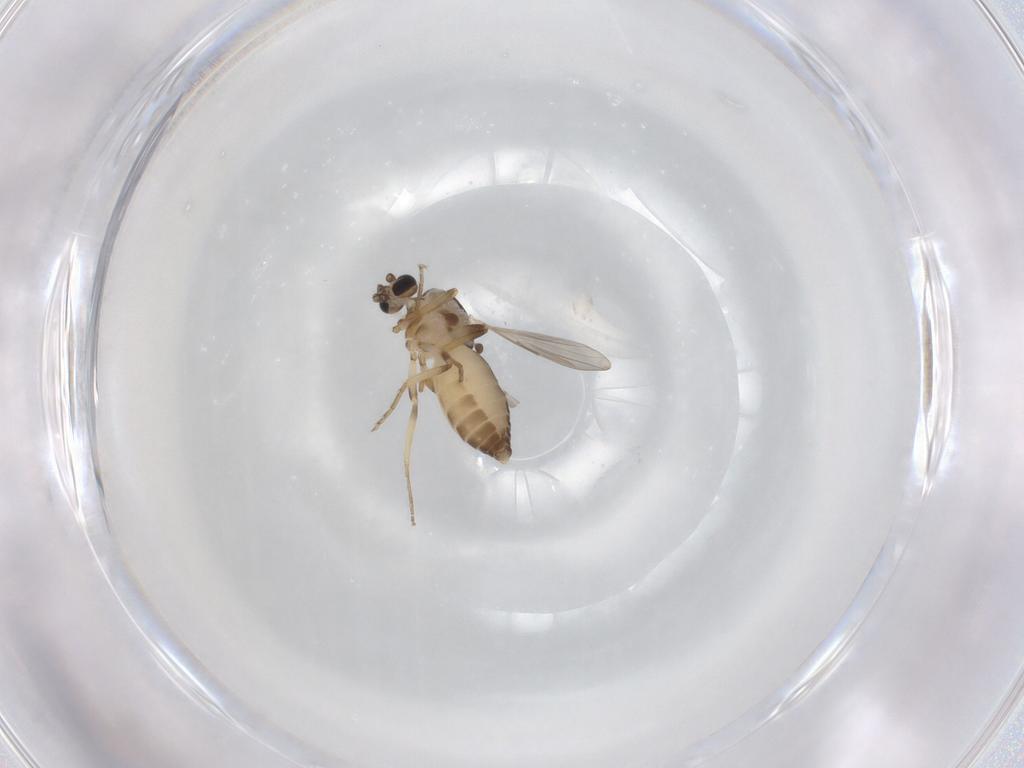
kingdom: Animalia
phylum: Arthropoda
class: Insecta
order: Diptera
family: Ceratopogonidae
